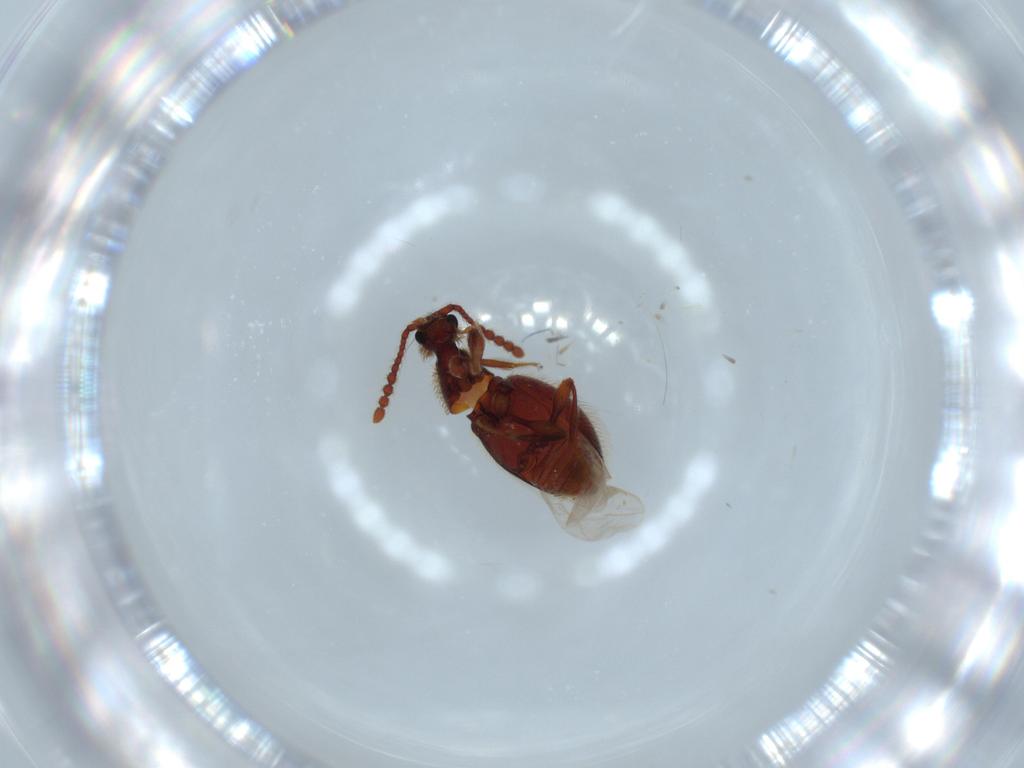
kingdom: Animalia
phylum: Arthropoda
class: Insecta
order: Coleoptera
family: Staphylinidae
